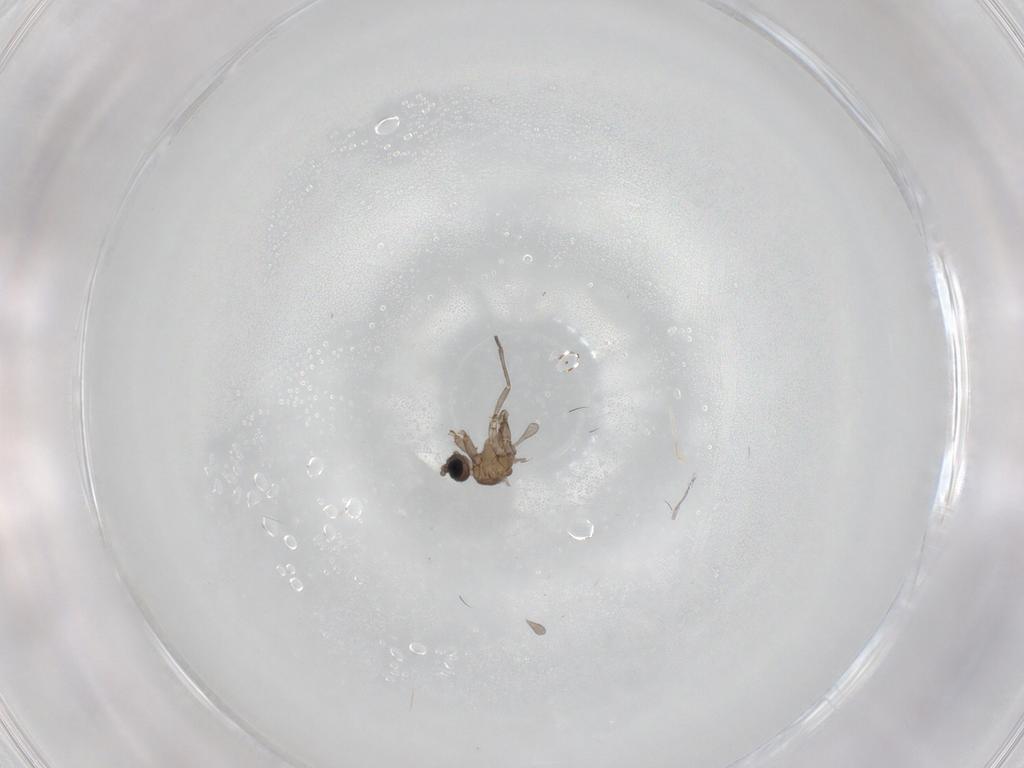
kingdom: Animalia
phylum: Arthropoda
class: Insecta
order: Diptera
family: Sciaridae
